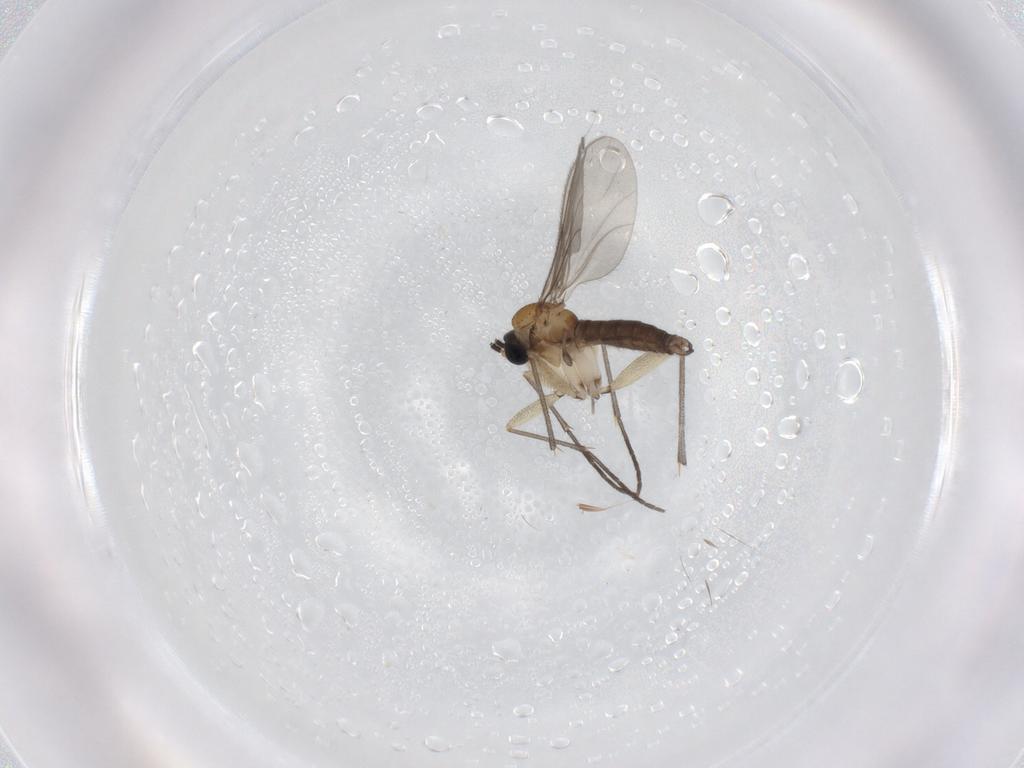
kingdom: Animalia
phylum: Arthropoda
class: Insecta
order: Diptera
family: Sciaridae
